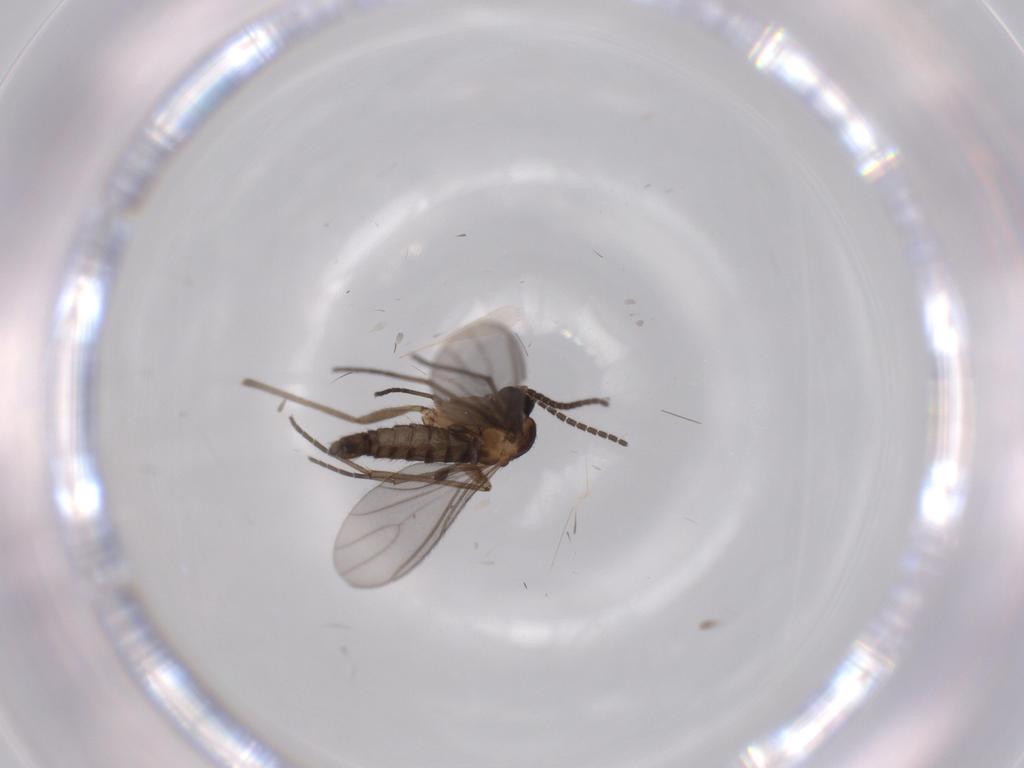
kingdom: Animalia
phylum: Arthropoda
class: Insecta
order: Diptera
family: Sciaridae
